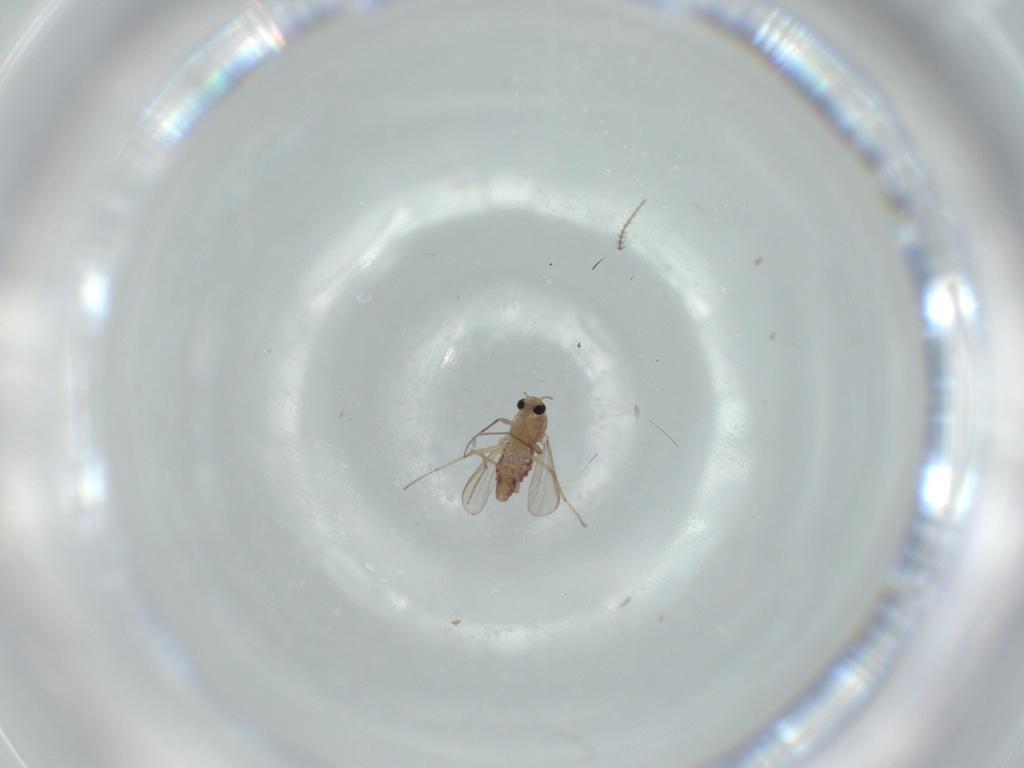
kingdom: Animalia
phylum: Arthropoda
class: Insecta
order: Diptera
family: Chironomidae
